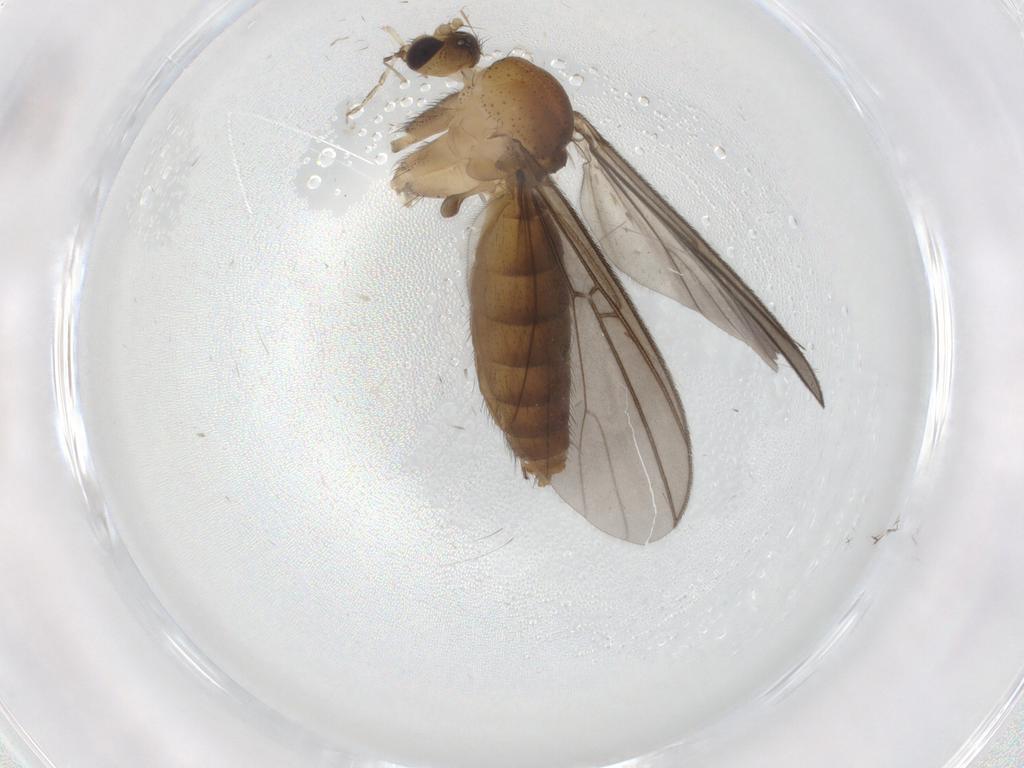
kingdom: Animalia
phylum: Arthropoda
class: Insecta
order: Diptera
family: Sciaridae
